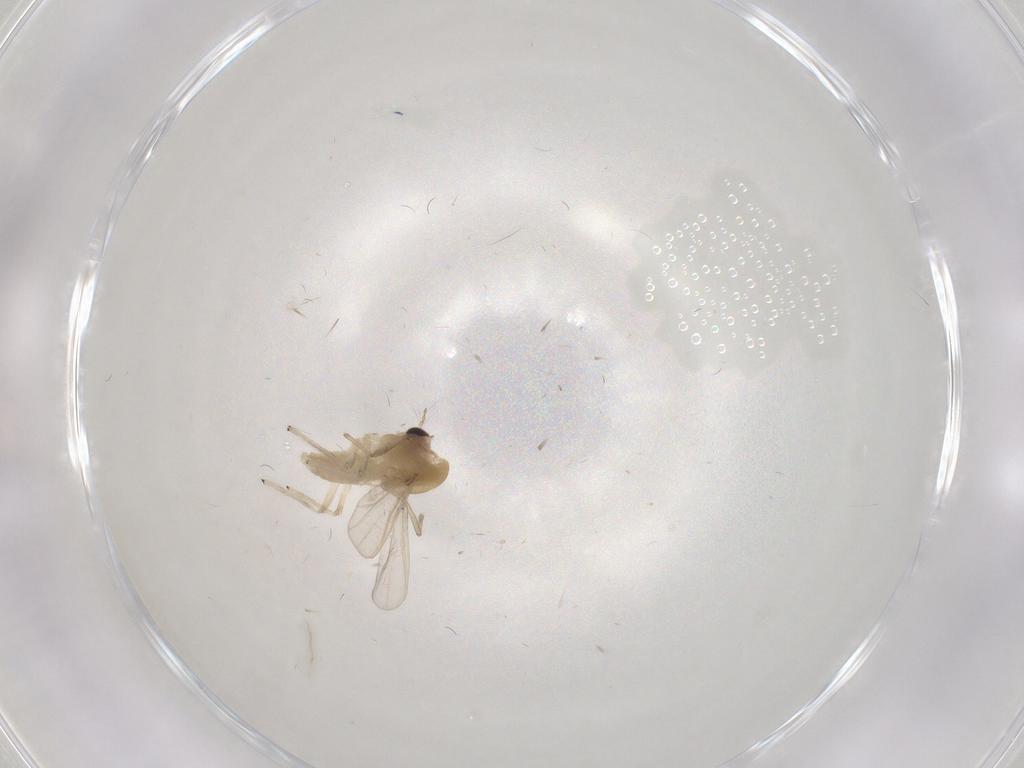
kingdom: Animalia
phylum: Arthropoda
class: Insecta
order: Diptera
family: Chironomidae
